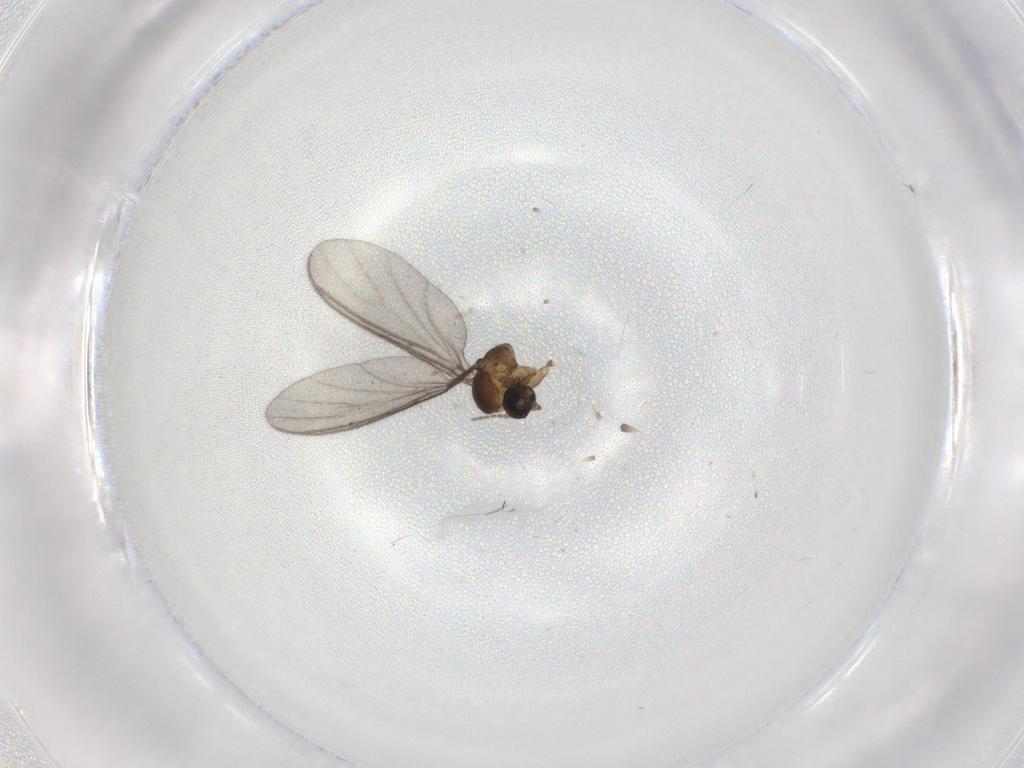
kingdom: Animalia
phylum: Arthropoda
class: Insecta
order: Diptera
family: Sciaridae
